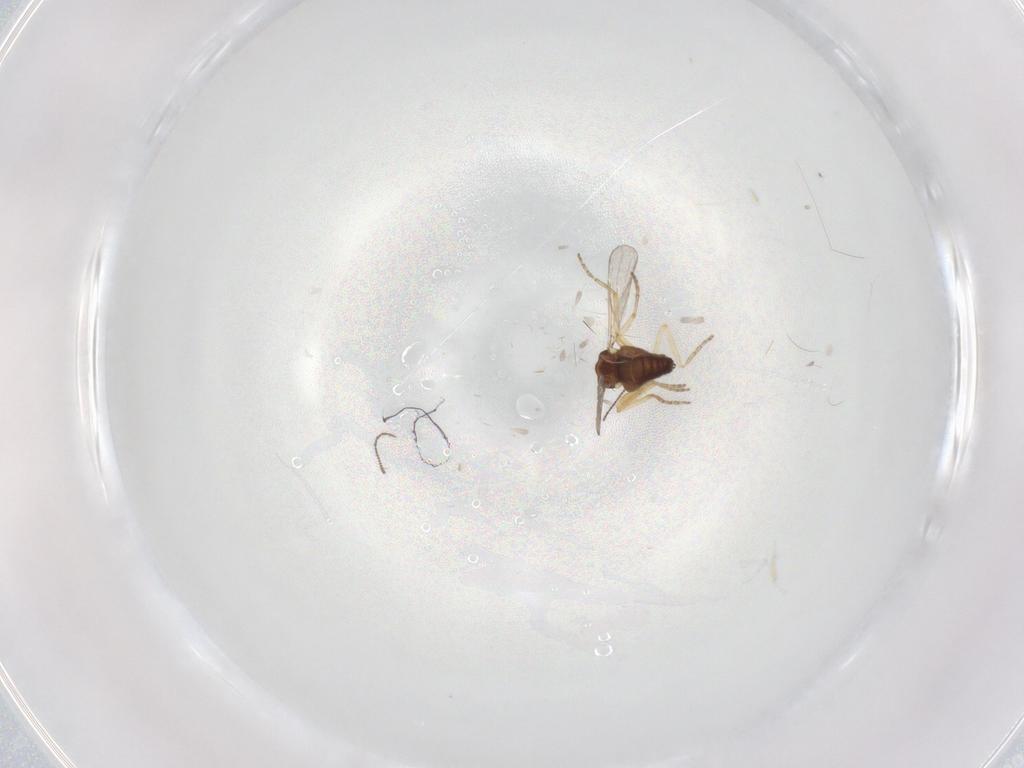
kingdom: Animalia
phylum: Arthropoda
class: Insecta
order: Diptera
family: Ceratopogonidae
